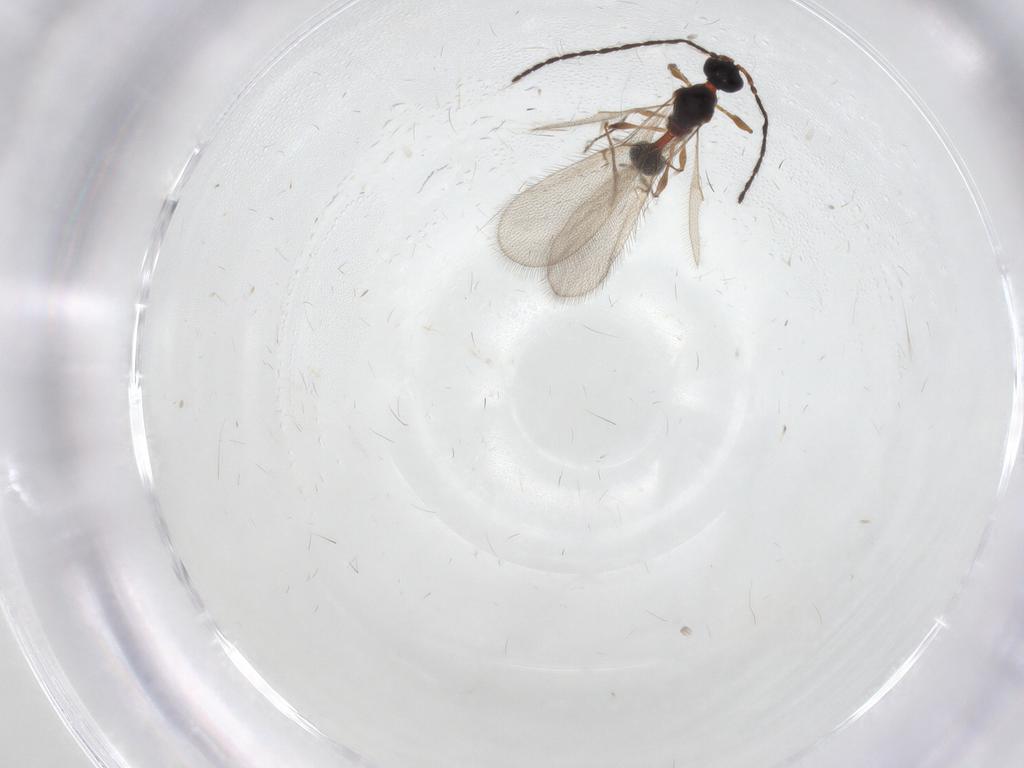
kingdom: Animalia
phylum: Arthropoda
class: Insecta
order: Hymenoptera
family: Diapriidae
